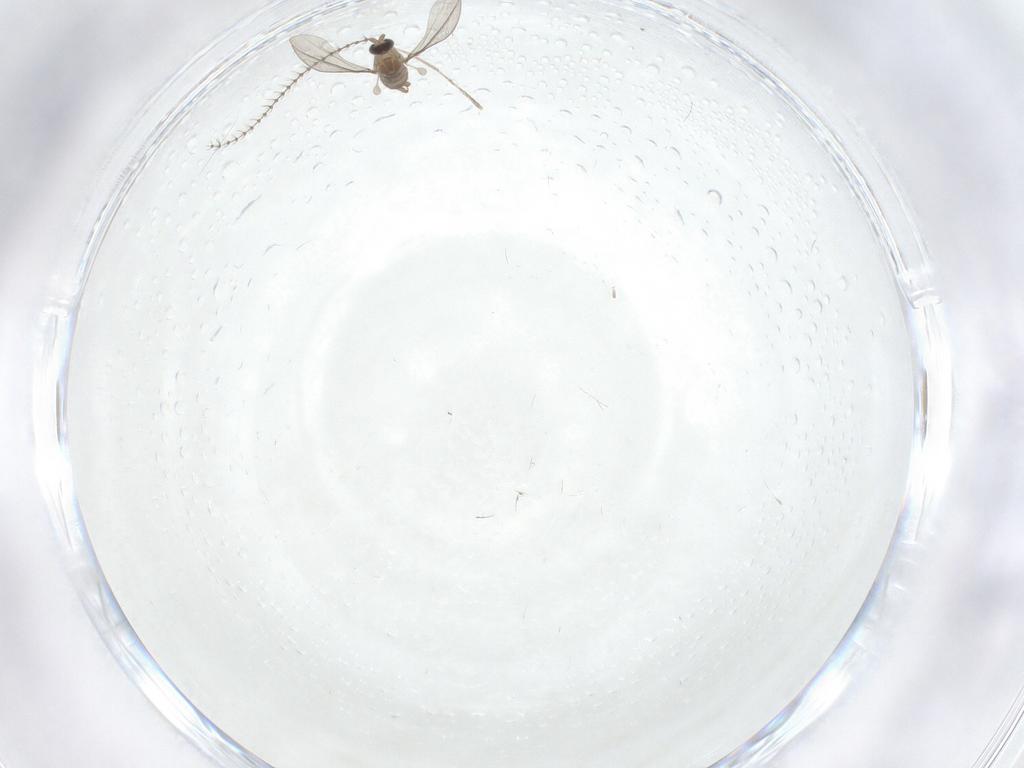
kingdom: Animalia
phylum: Arthropoda
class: Insecta
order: Diptera
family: Cecidomyiidae
